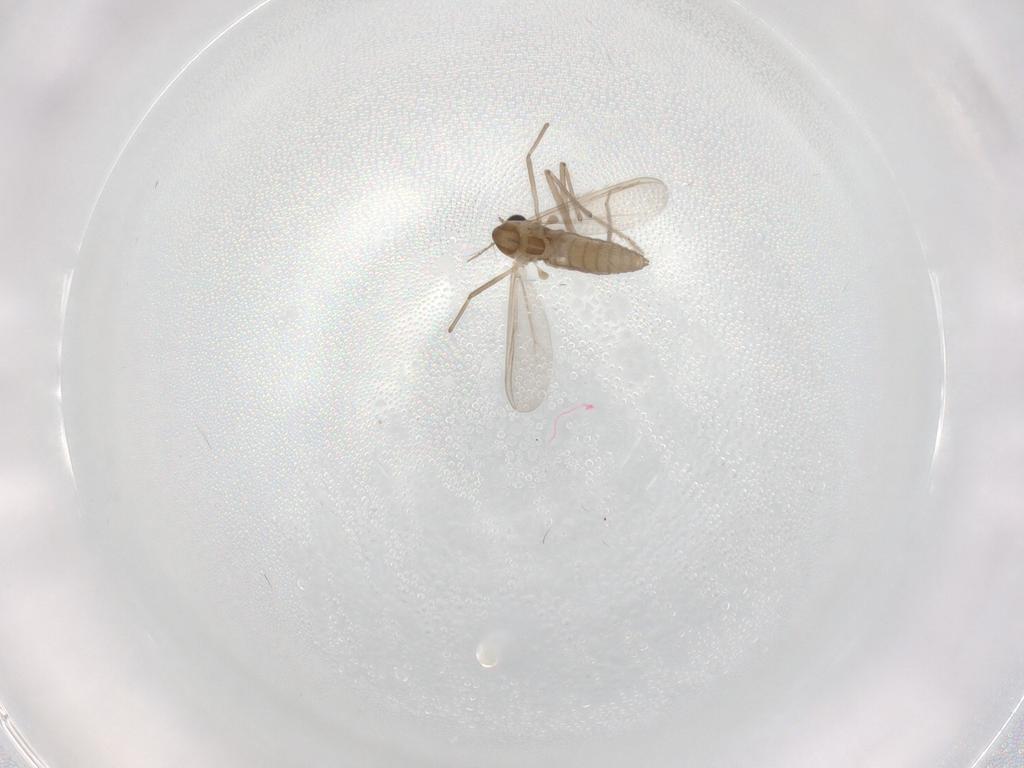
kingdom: Animalia
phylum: Arthropoda
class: Insecta
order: Diptera
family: Chironomidae
